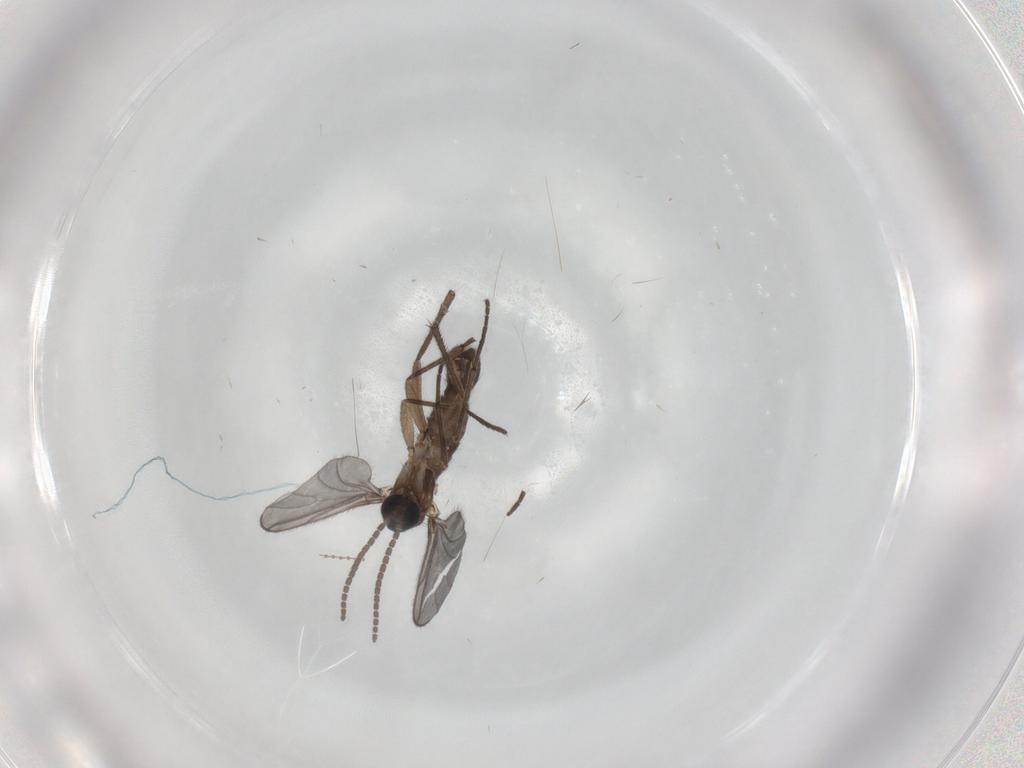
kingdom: Animalia
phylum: Arthropoda
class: Insecta
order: Diptera
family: Sciaridae
